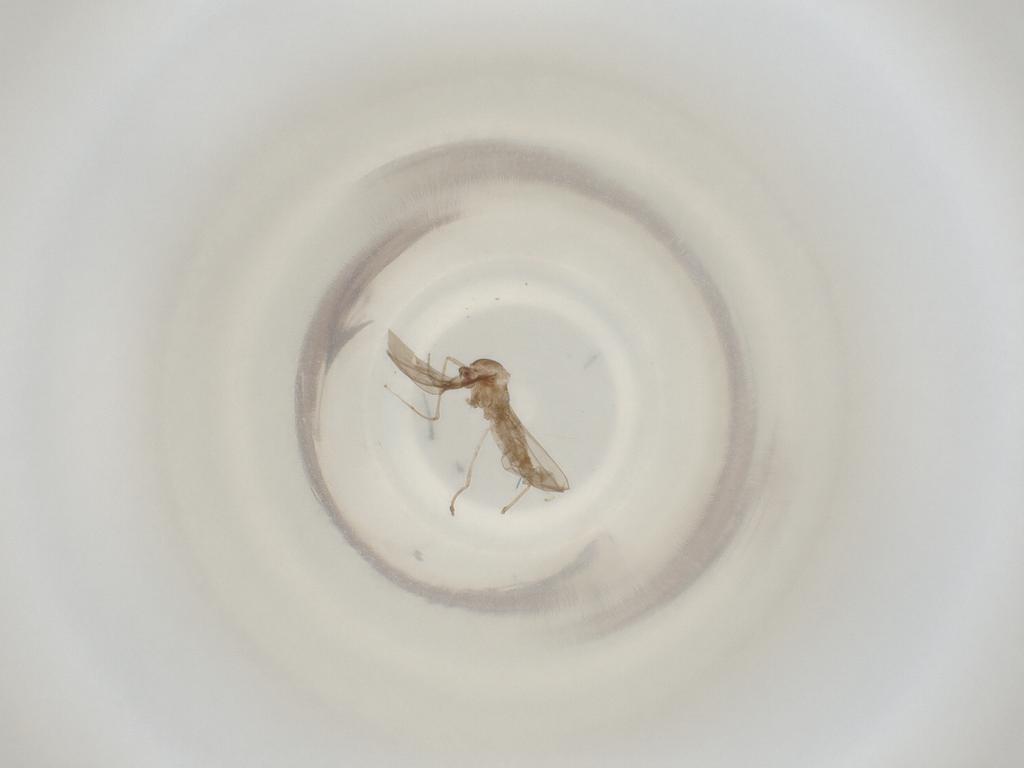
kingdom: Animalia
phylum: Arthropoda
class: Insecta
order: Diptera
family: Cecidomyiidae
